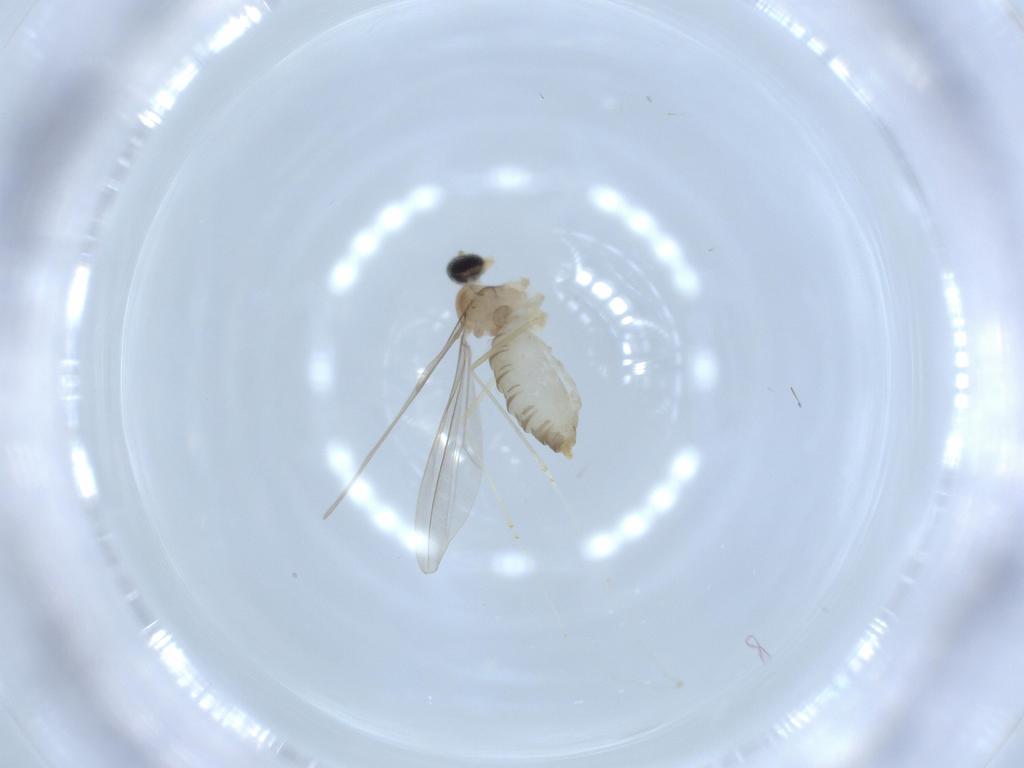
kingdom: Animalia
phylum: Arthropoda
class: Insecta
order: Diptera
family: Cecidomyiidae
